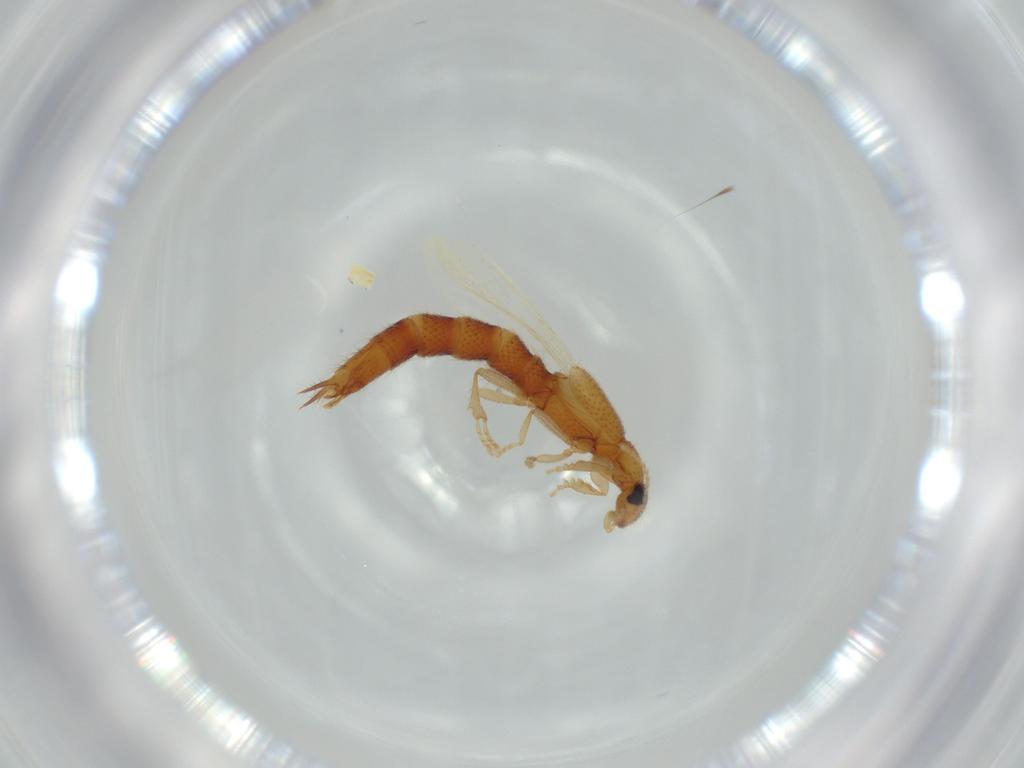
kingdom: Animalia
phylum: Arthropoda
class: Insecta
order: Coleoptera
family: Staphylinidae
